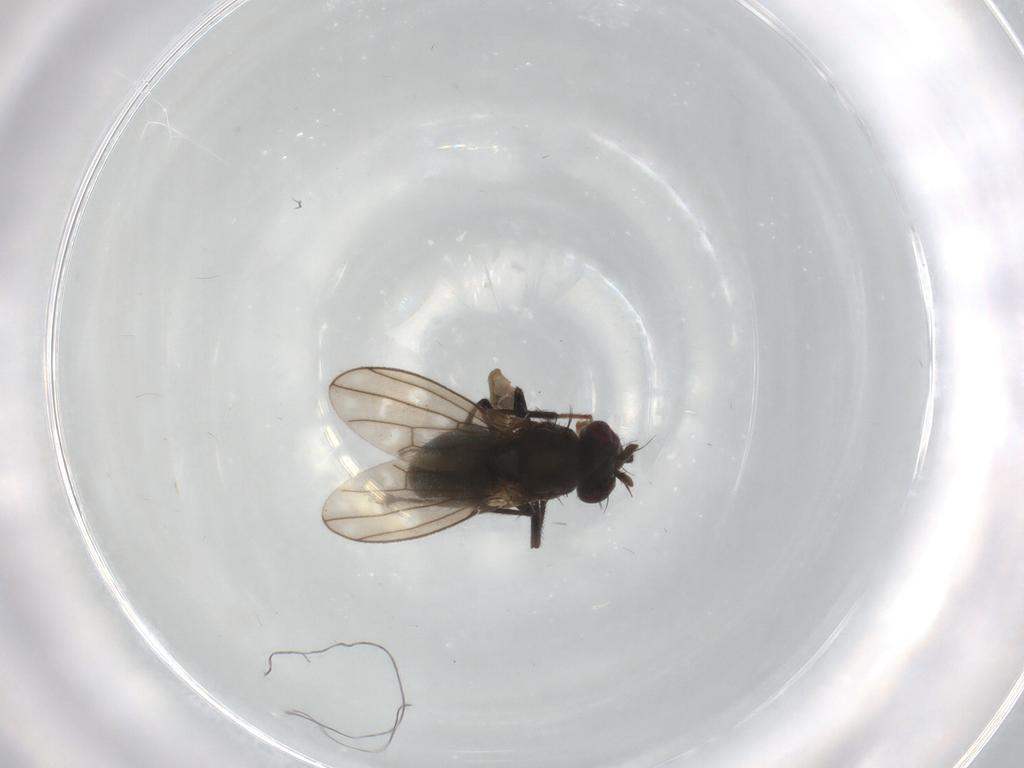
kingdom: Animalia
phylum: Arthropoda
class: Insecta
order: Diptera
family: Ephydridae
